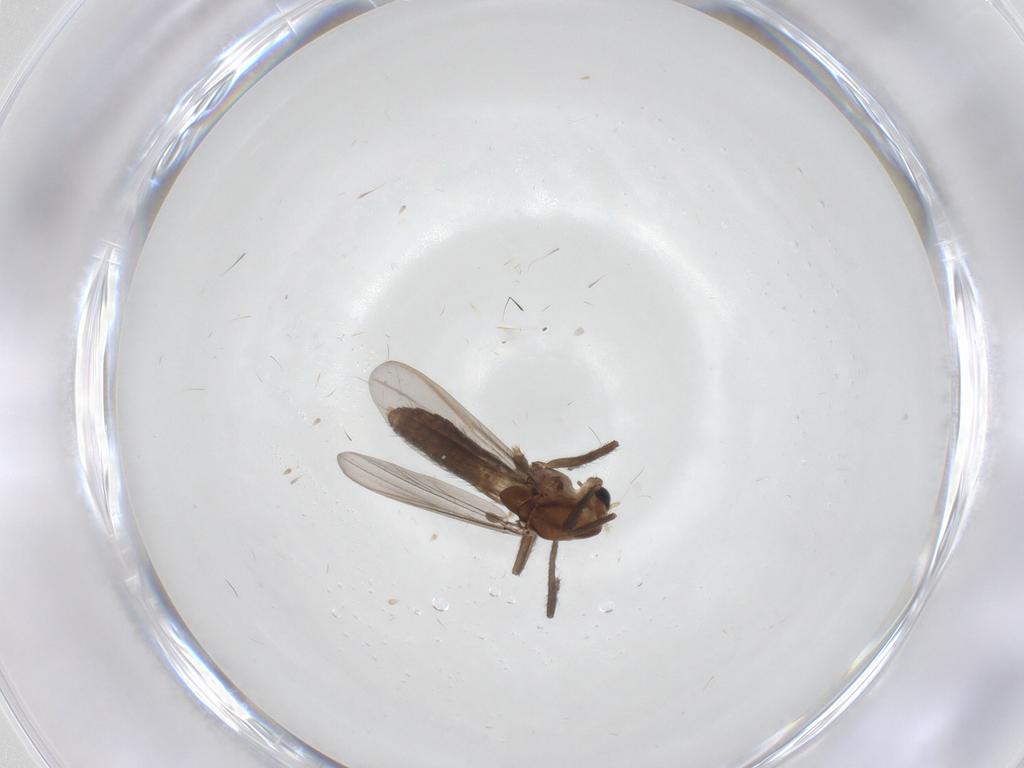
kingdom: Animalia
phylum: Arthropoda
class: Insecta
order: Diptera
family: Chironomidae
